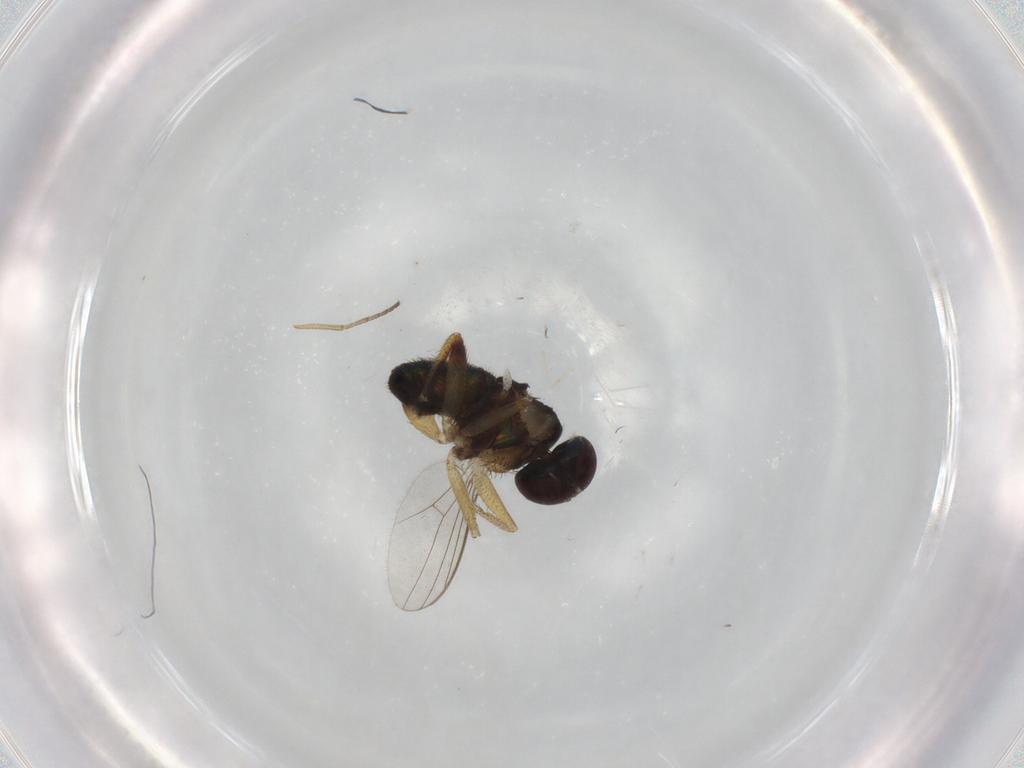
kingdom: Animalia
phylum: Arthropoda
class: Insecta
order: Diptera
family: Dolichopodidae
